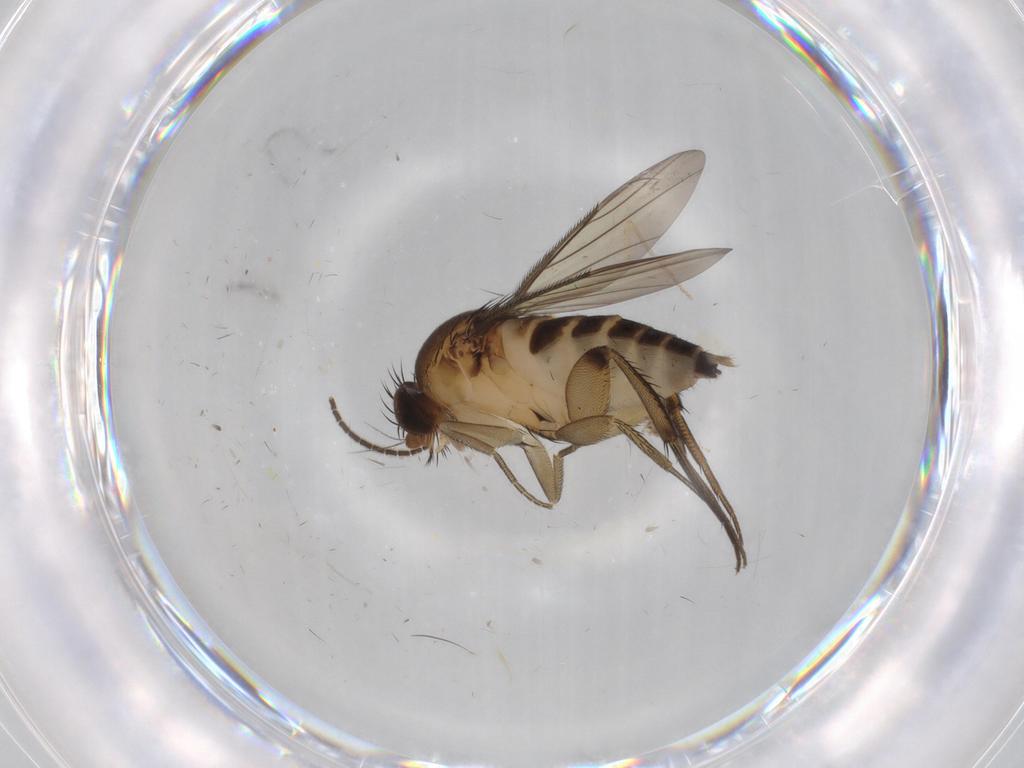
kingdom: Animalia
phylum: Arthropoda
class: Insecta
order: Diptera
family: Sciaridae
